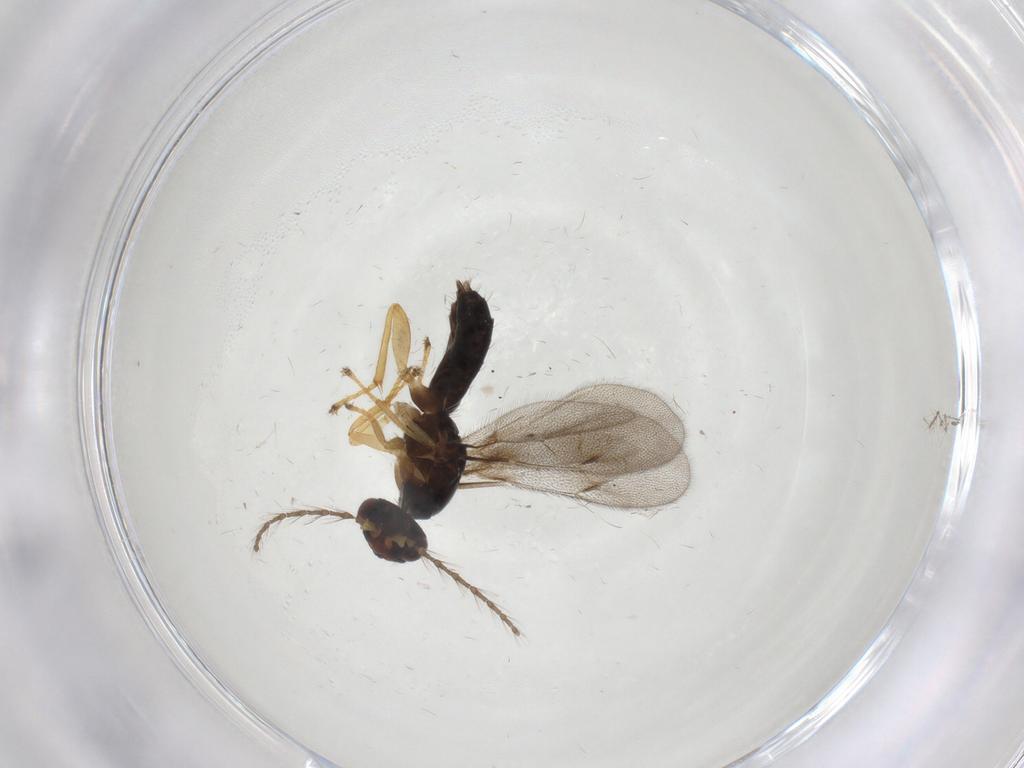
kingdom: Animalia
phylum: Arthropoda
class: Insecta
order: Hymenoptera
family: Eulophidae
